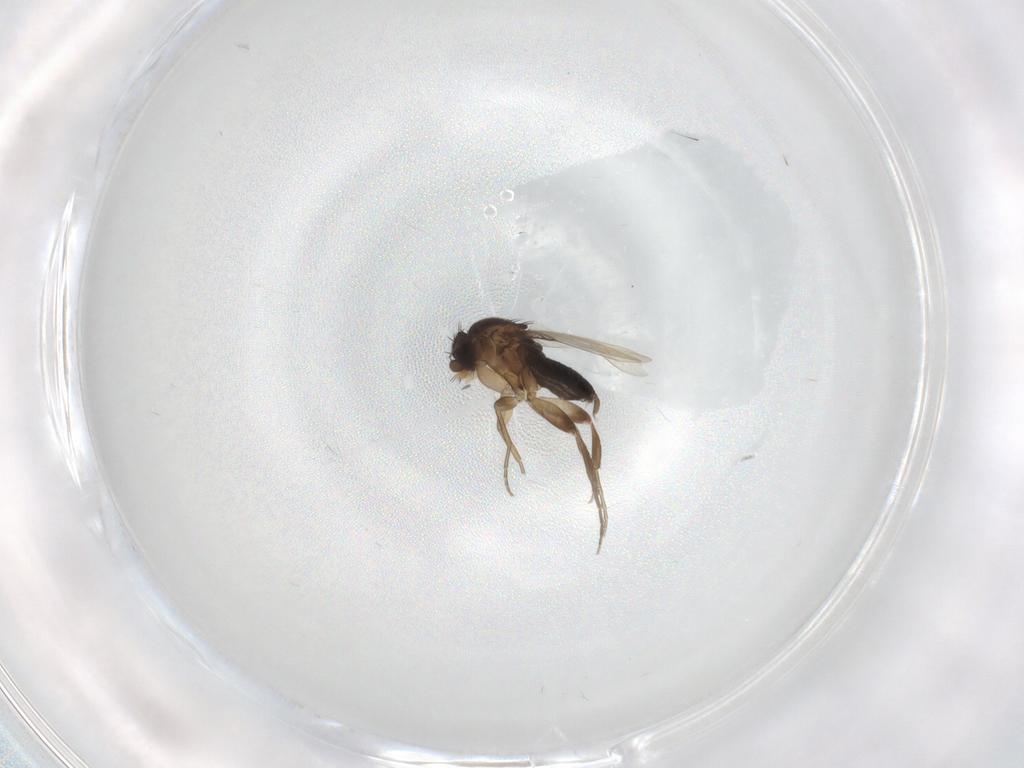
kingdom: Animalia
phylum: Arthropoda
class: Insecta
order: Diptera
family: Phoridae
